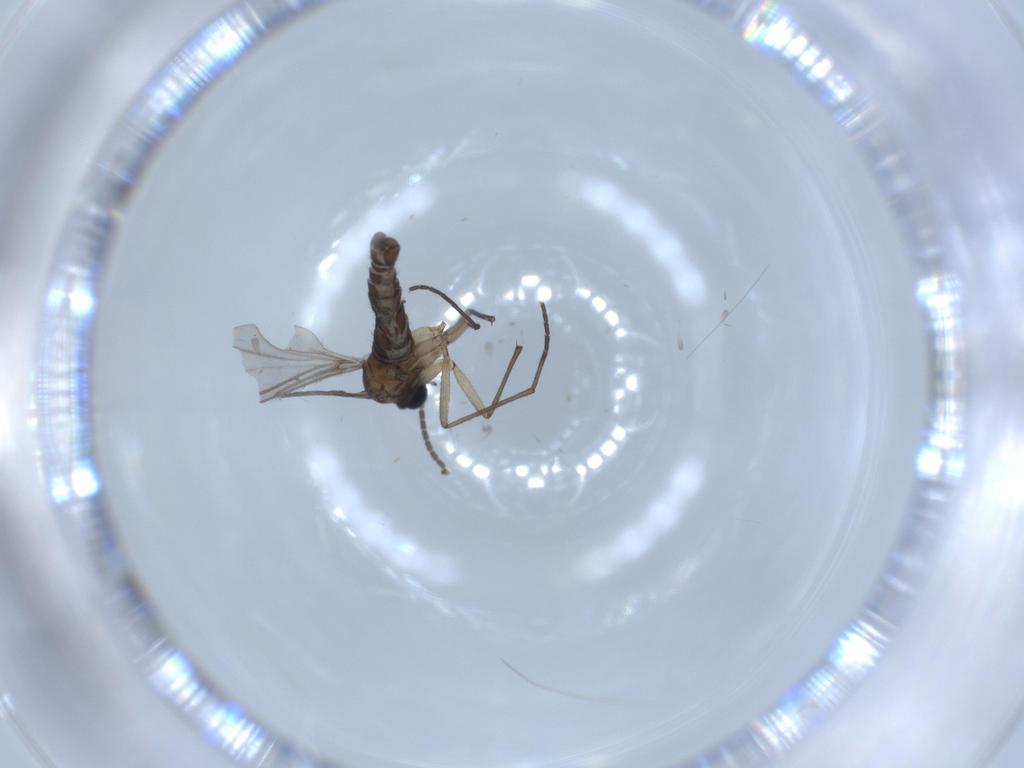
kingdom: Animalia
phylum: Arthropoda
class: Insecta
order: Diptera
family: Sciaridae
